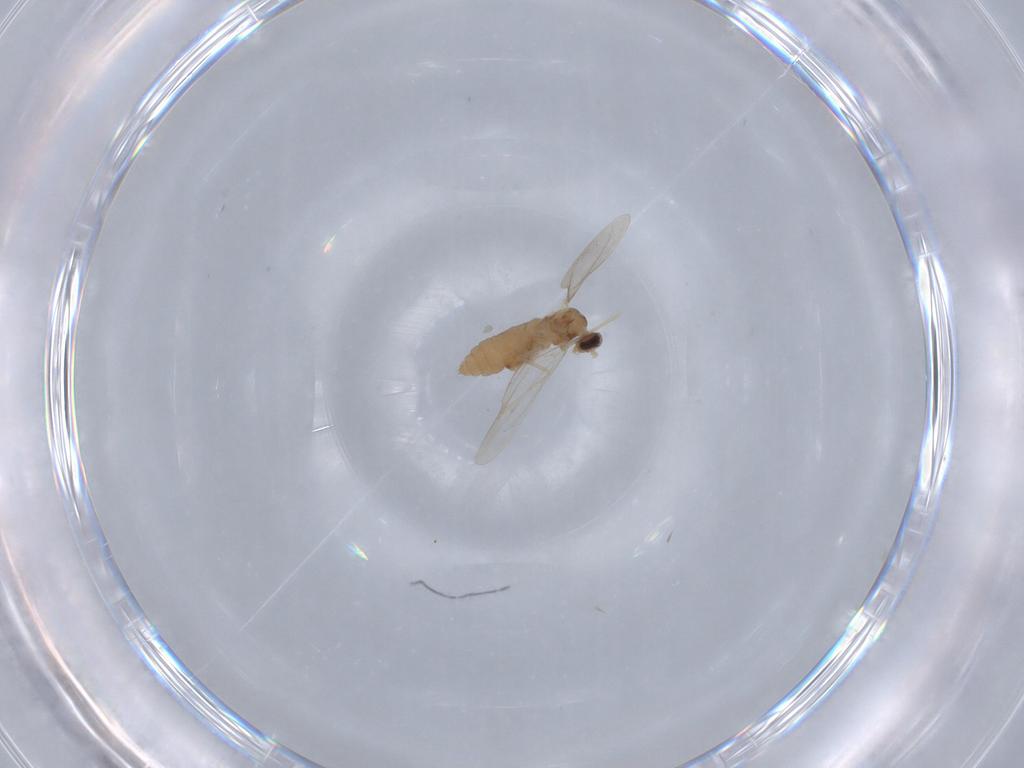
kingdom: Animalia
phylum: Arthropoda
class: Insecta
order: Diptera
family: Cecidomyiidae
